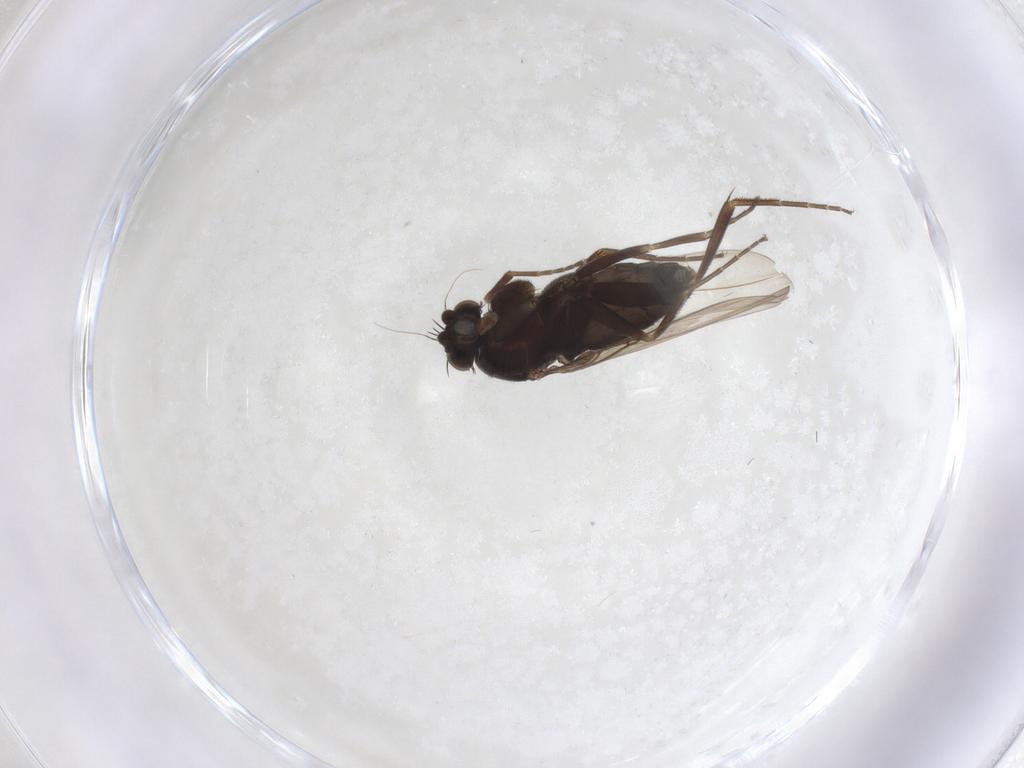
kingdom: Animalia
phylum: Arthropoda
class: Insecta
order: Diptera
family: Phoridae
